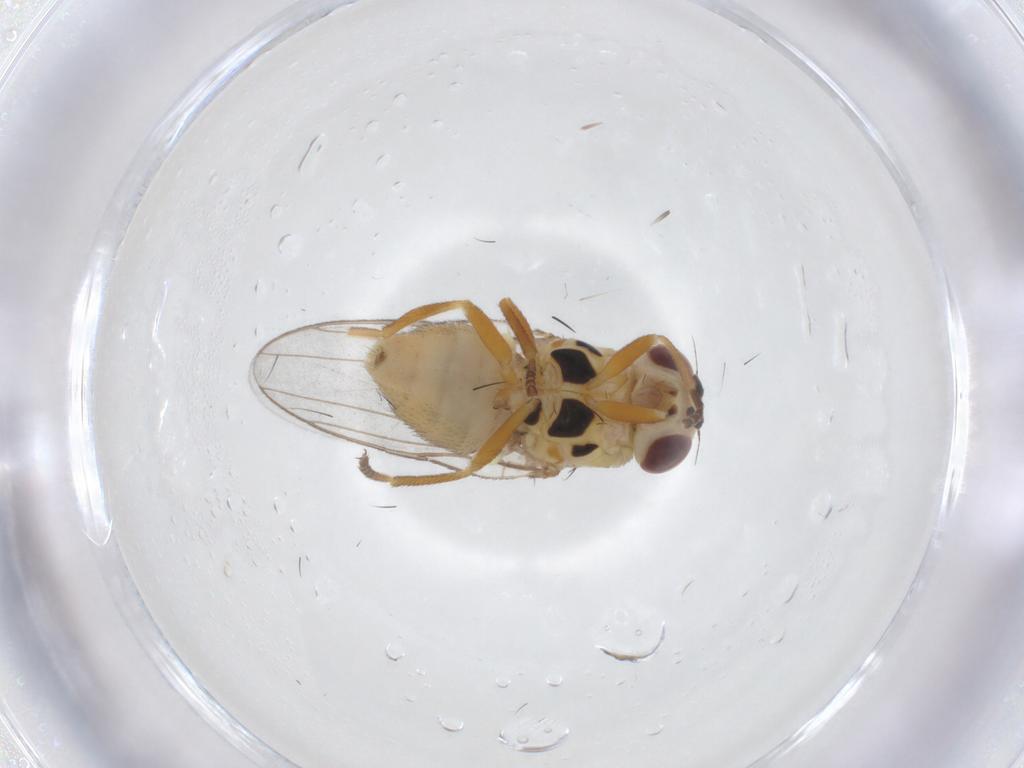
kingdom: Animalia
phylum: Arthropoda
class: Insecta
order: Diptera
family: Chloropidae
